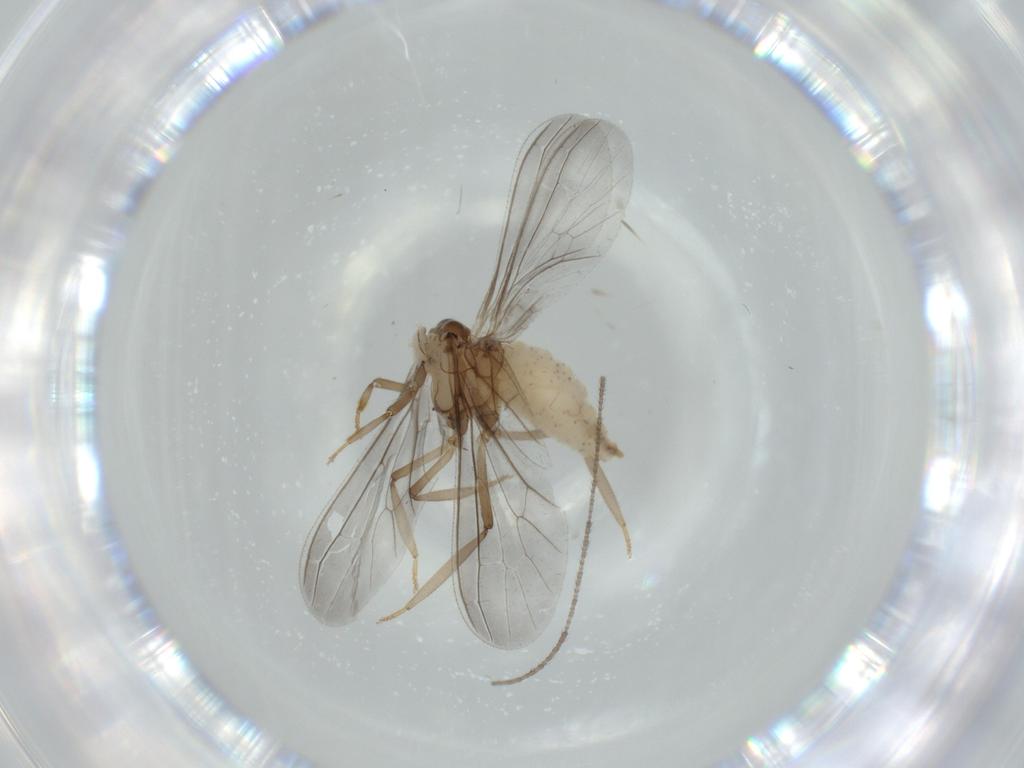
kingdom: Animalia
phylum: Arthropoda
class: Insecta
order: Neuroptera
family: Coniopterygidae
